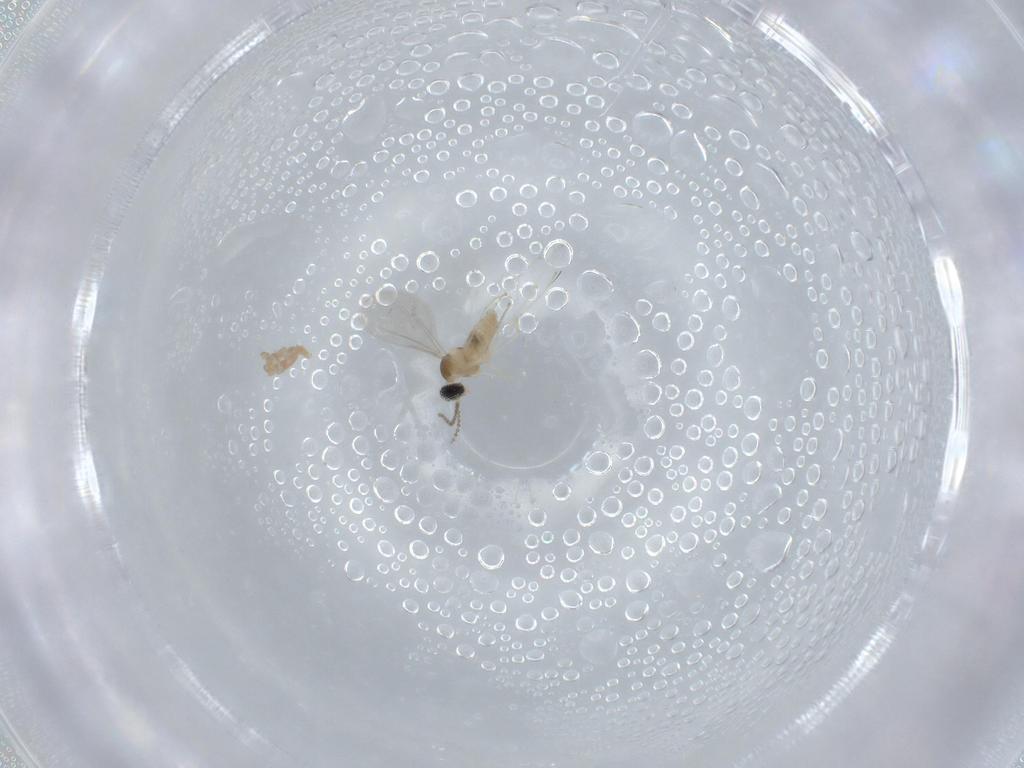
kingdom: Animalia
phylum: Arthropoda
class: Insecta
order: Diptera
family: Cecidomyiidae
